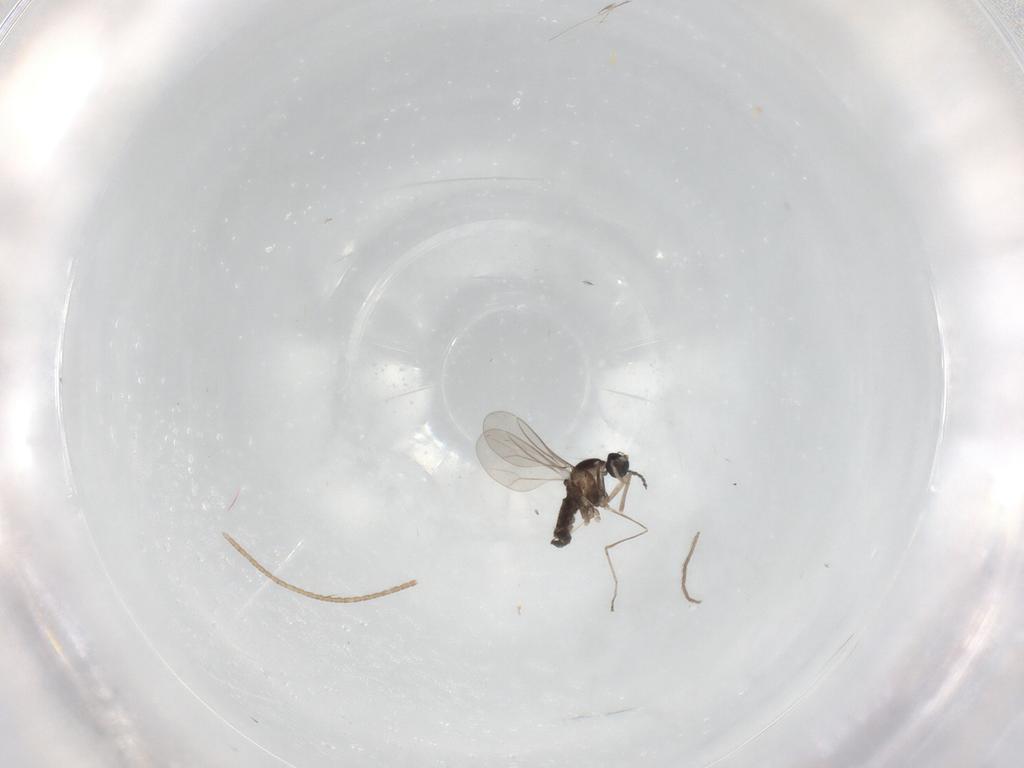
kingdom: Animalia
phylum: Arthropoda
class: Insecta
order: Diptera
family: Cecidomyiidae
